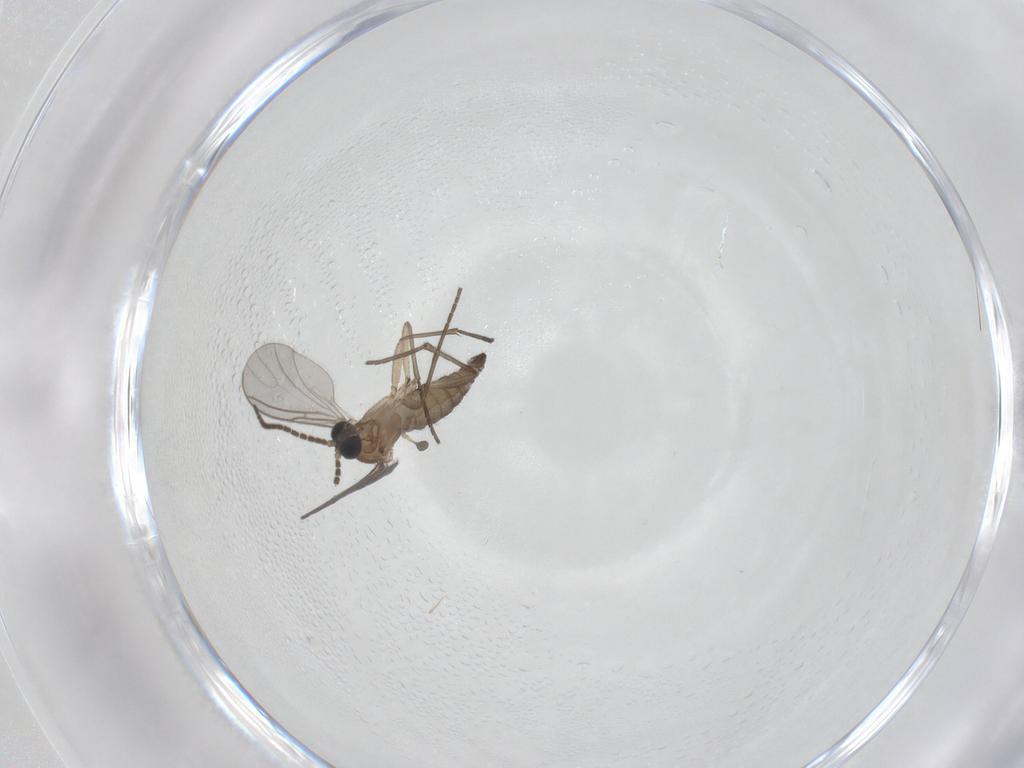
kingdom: Animalia
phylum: Arthropoda
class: Insecta
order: Diptera
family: Sciaridae
